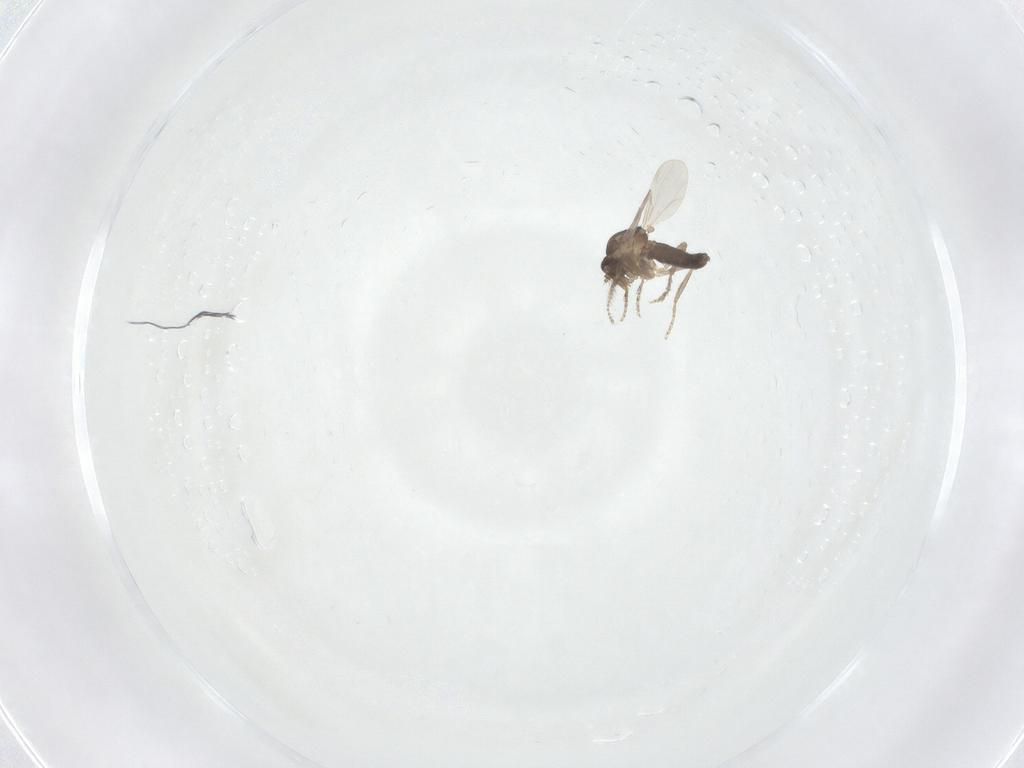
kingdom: Animalia
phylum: Arthropoda
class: Insecta
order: Diptera
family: Ceratopogonidae
